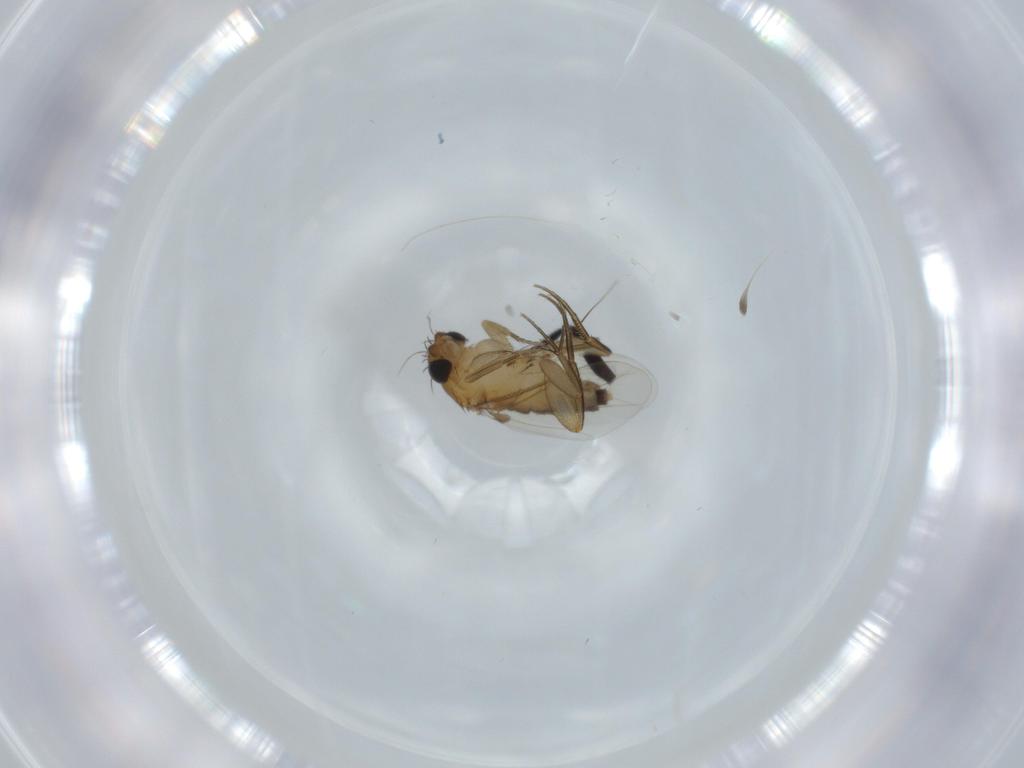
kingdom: Animalia
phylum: Arthropoda
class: Insecta
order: Diptera
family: Phoridae
